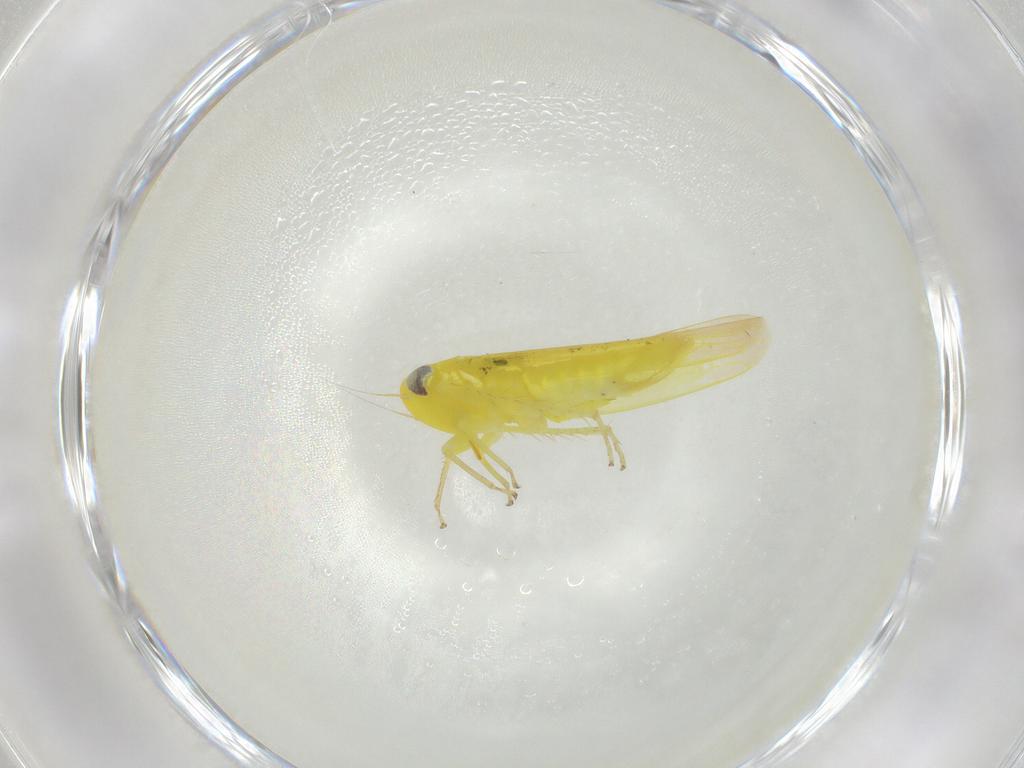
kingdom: Animalia
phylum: Arthropoda
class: Insecta
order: Hemiptera
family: Cicadellidae
